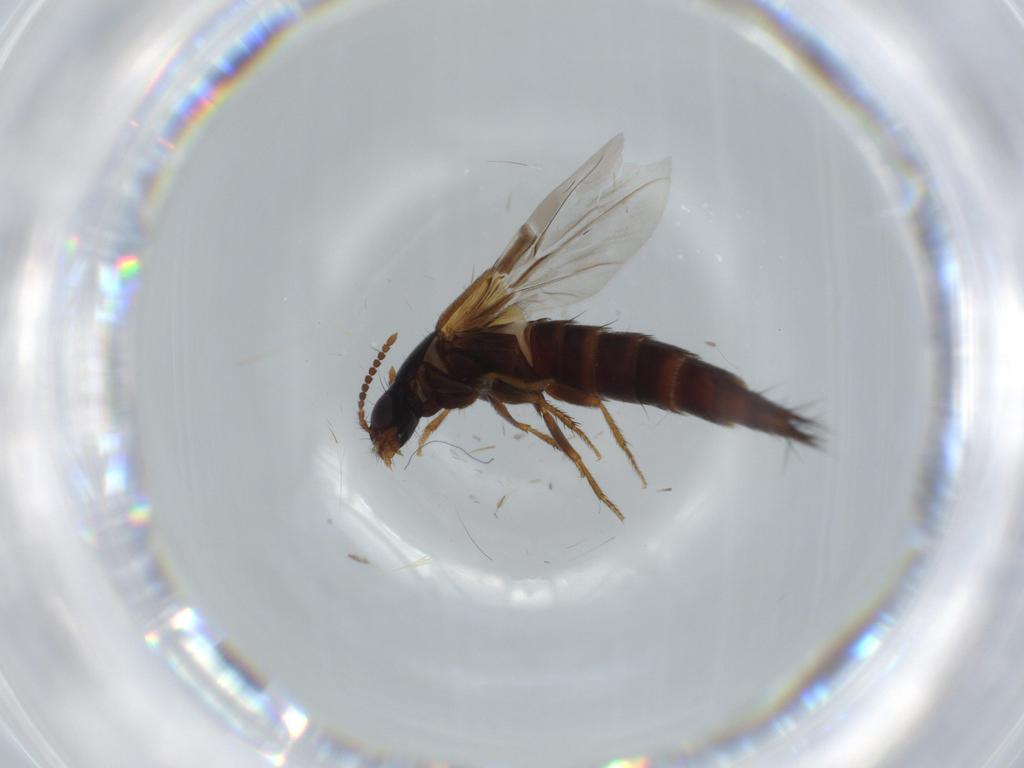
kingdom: Animalia
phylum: Arthropoda
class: Insecta
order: Coleoptera
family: Staphylinidae
